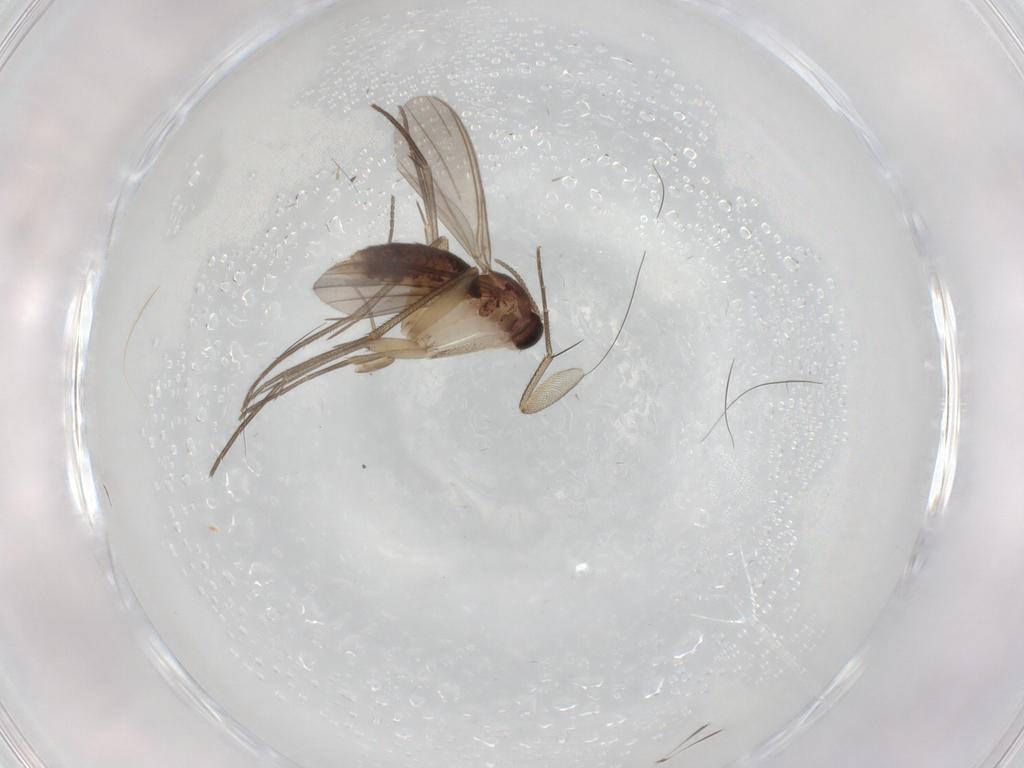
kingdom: Animalia
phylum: Arthropoda
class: Insecta
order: Diptera
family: Mycetophilidae
